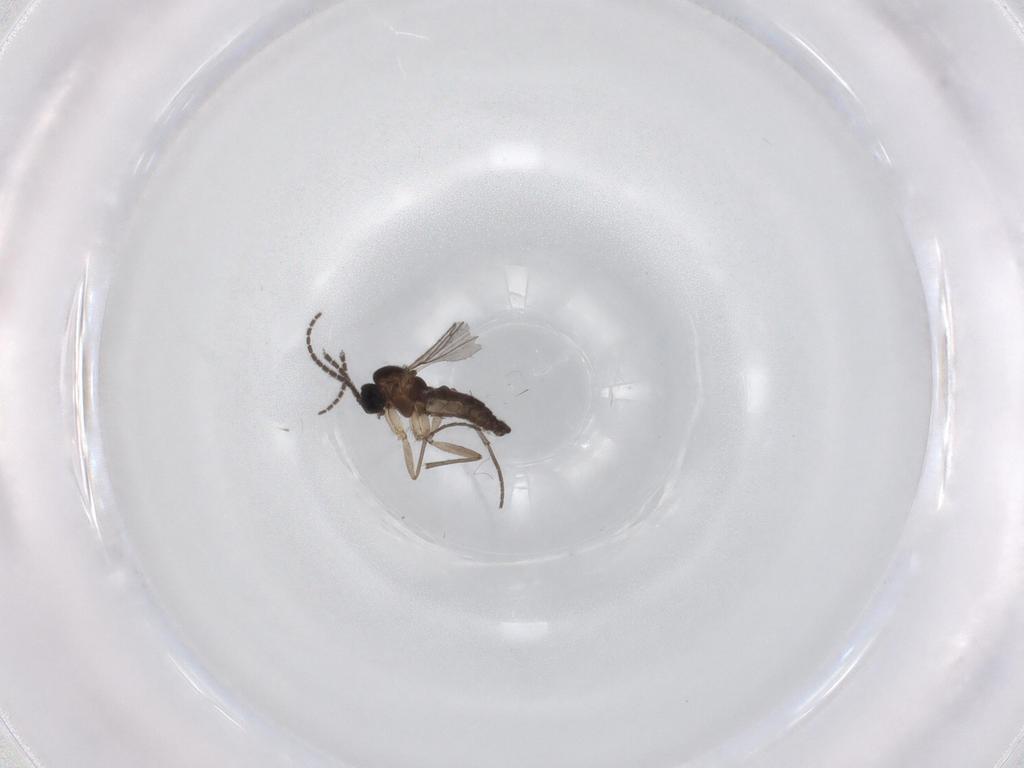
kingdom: Animalia
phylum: Arthropoda
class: Insecta
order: Diptera
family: Sciaridae
